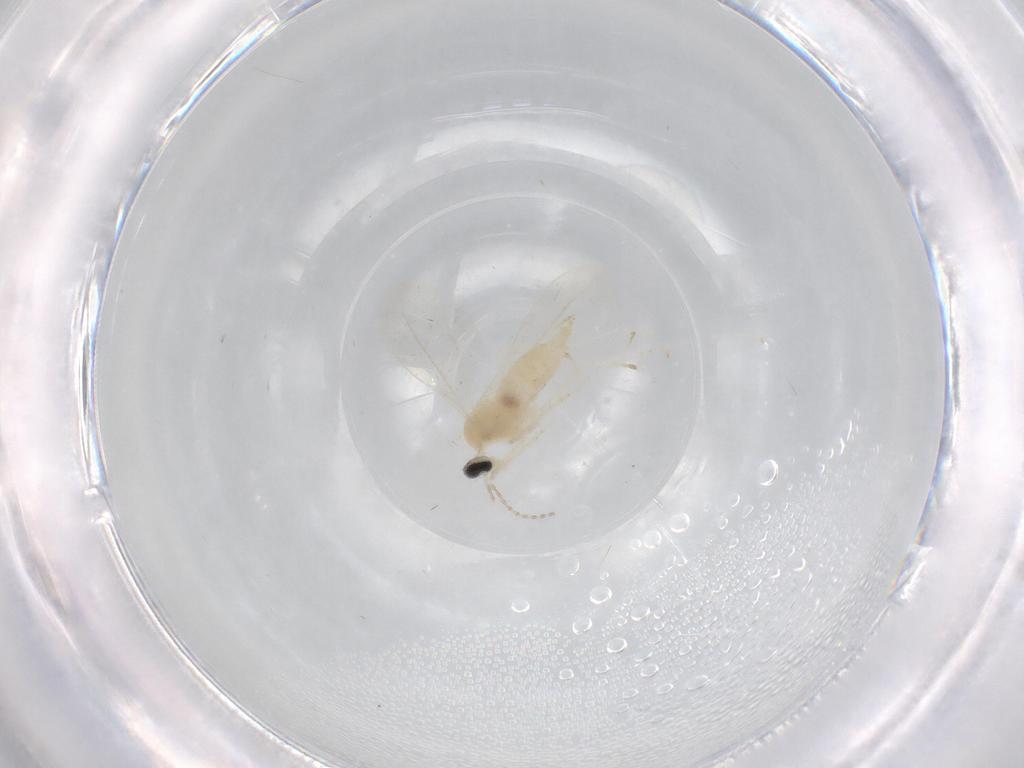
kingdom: Animalia
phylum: Arthropoda
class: Insecta
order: Diptera
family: Cecidomyiidae
